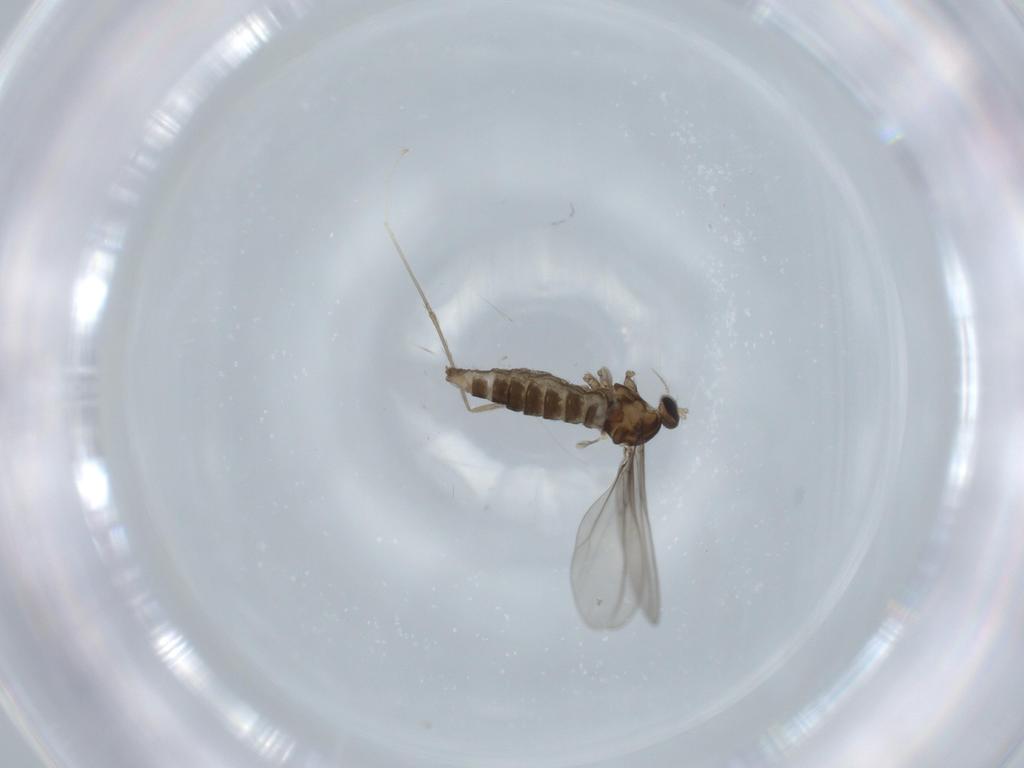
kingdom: Animalia
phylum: Arthropoda
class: Insecta
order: Diptera
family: Cecidomyiidae
